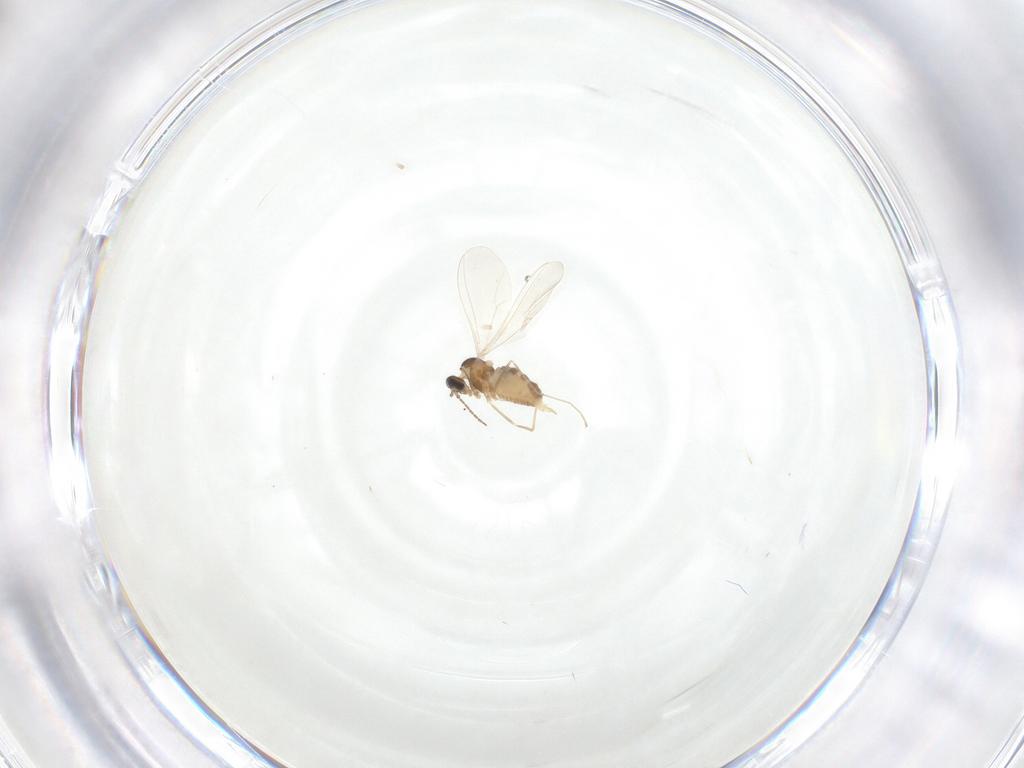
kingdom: Animalia
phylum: Arthropoda
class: Insecta
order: Diptera
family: Cecidomyiidae
